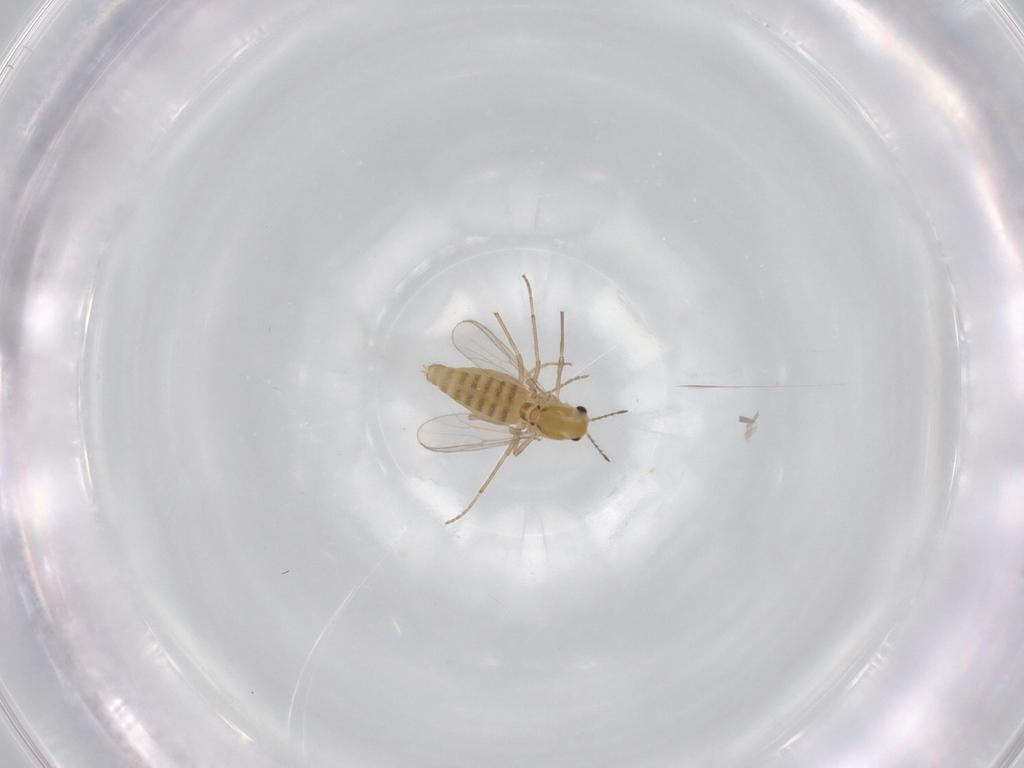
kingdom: Animalia
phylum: Arthropoda
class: Insecta
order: Diptera
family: Chironomidae
